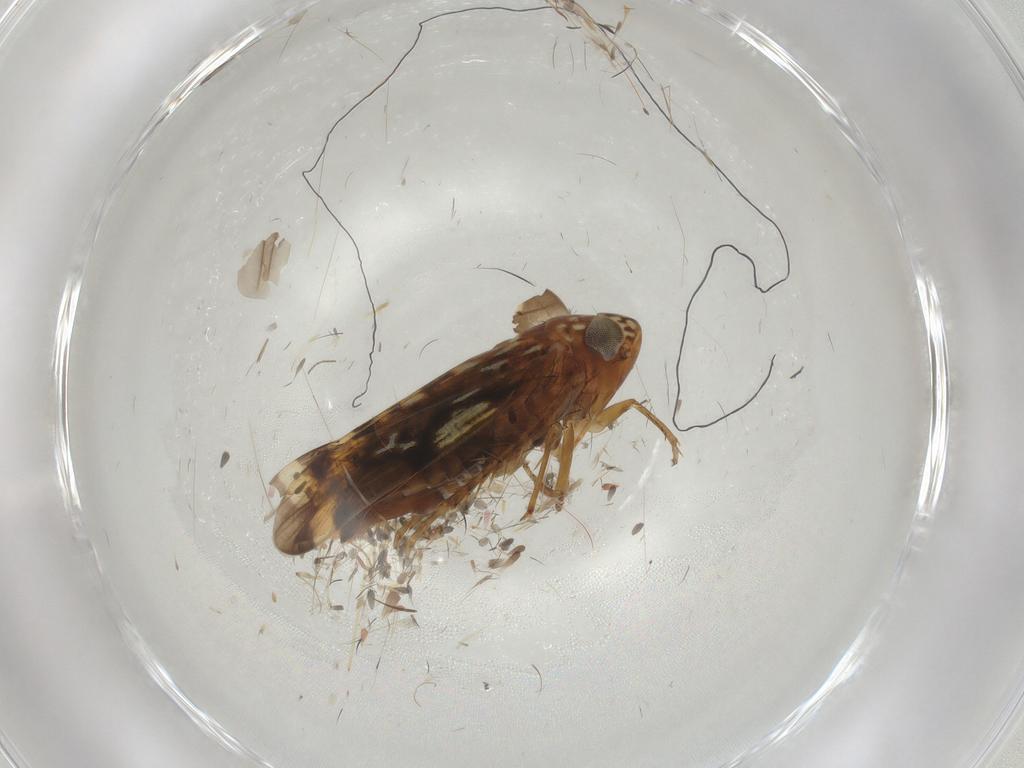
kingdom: Animalia
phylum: Arthropoda
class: Insecta
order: Hemiptera
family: Cicadellidae
